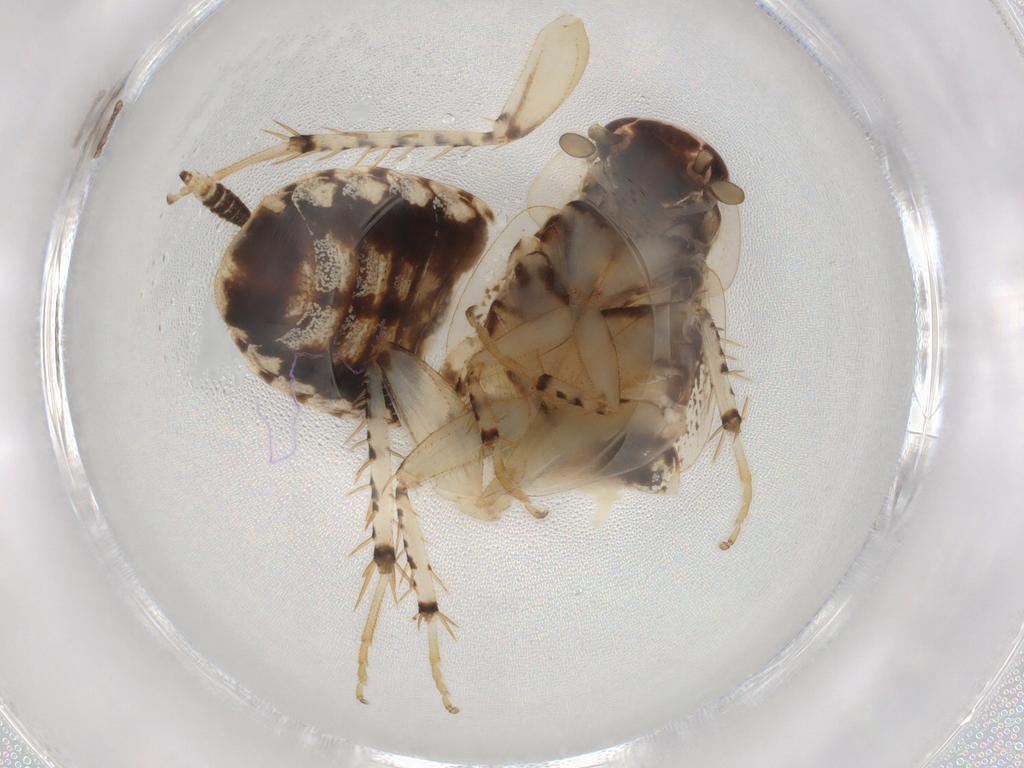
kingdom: Animalia
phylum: Arthropoda
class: Insecta
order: Blattodea
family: Ectobiidae
